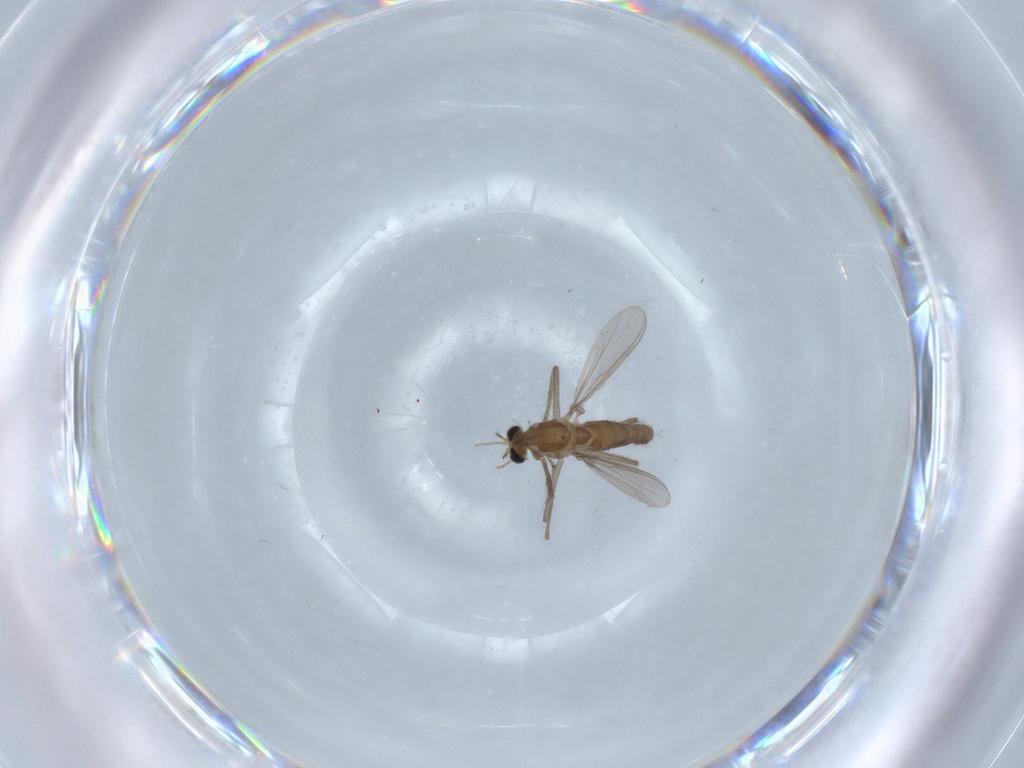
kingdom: Animalia
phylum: Arthropoda
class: Insecta
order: Diptera
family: Chironomidae
